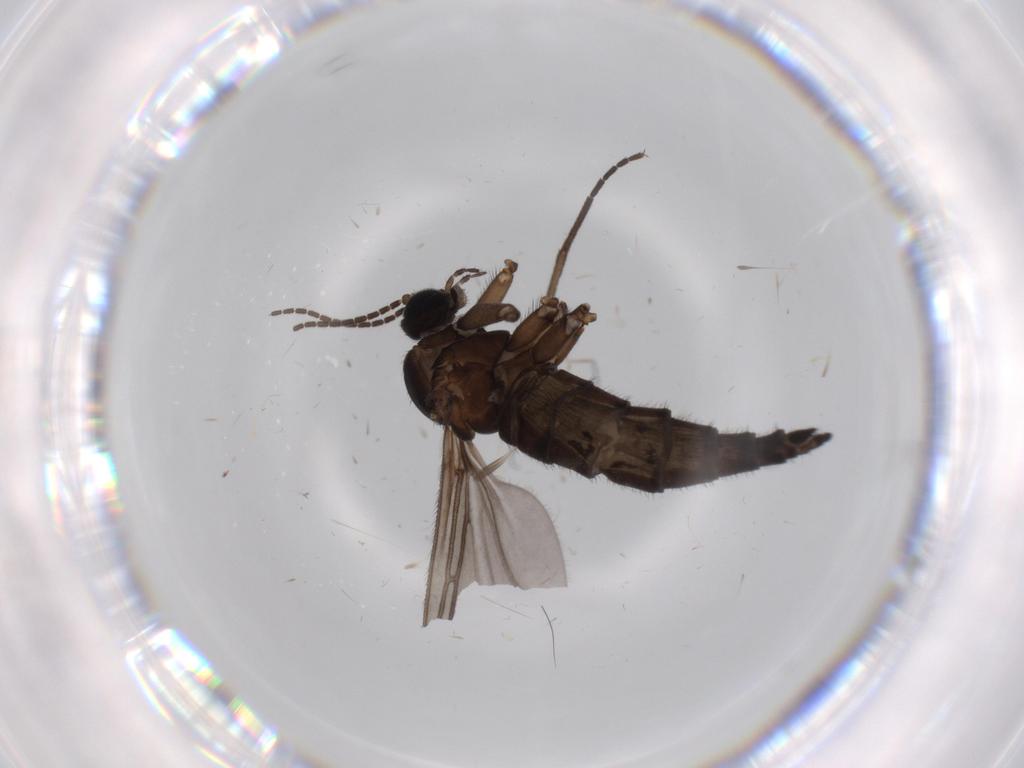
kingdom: Animalia
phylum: Arthropoda
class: Insecta
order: Diptera
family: Sciaridae
